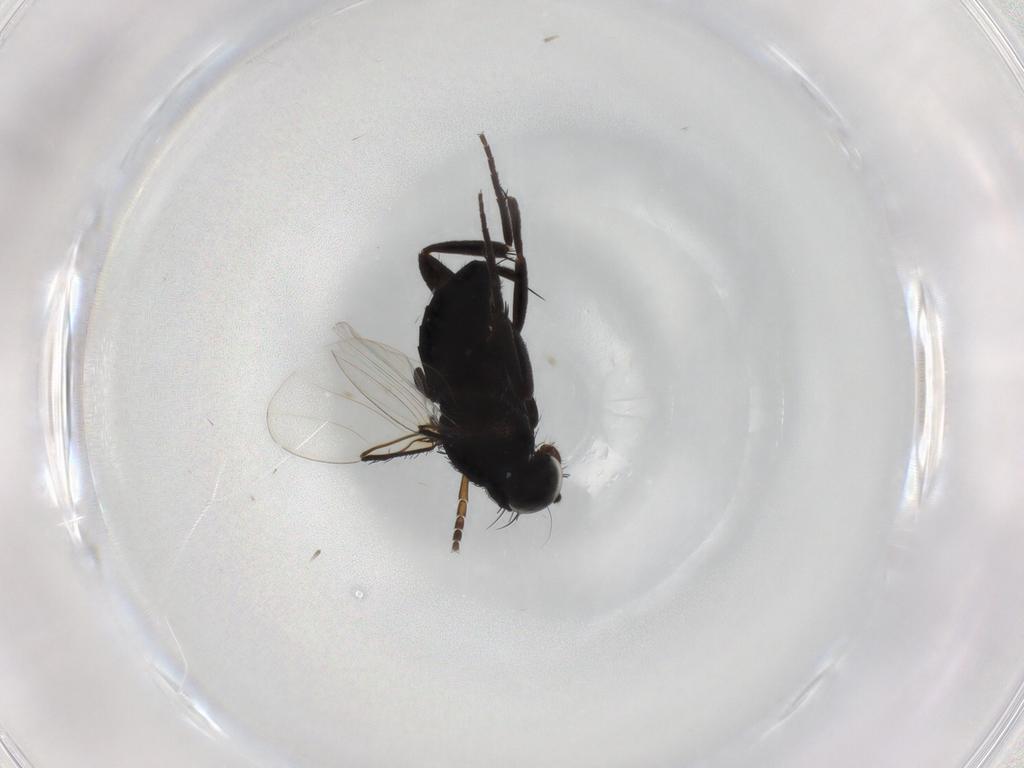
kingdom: Animalia
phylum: Arthropoda
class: Insecta
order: Diptera
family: Phoridae
